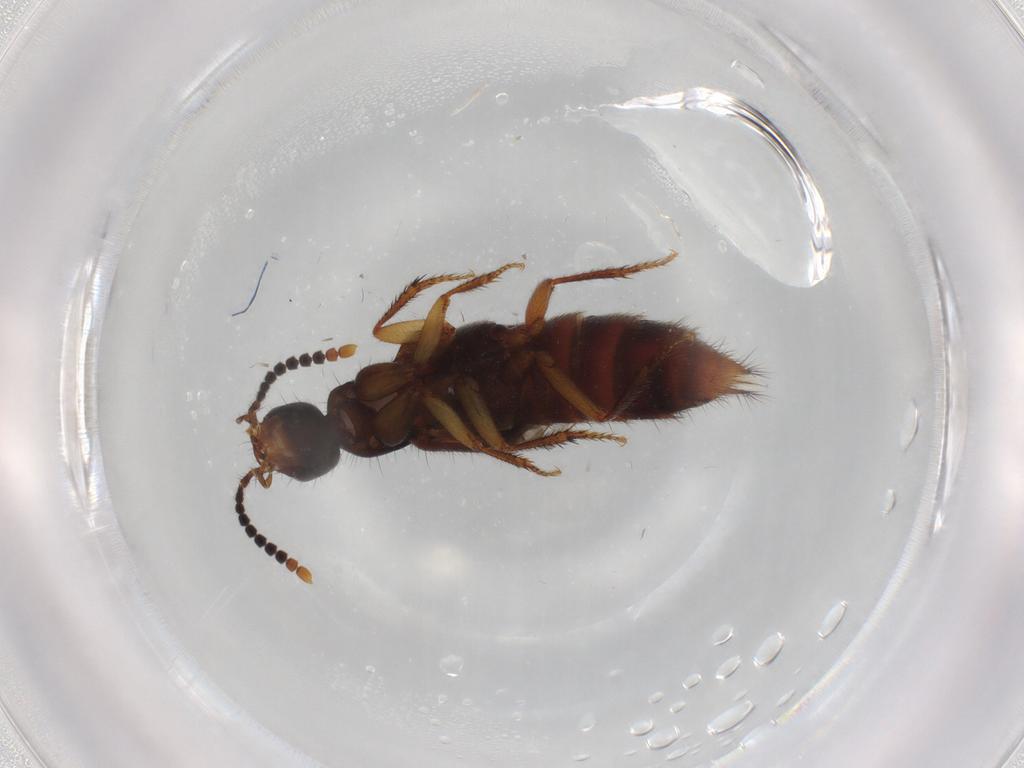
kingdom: Animalia
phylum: Arthropoda
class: Insecta
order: Coleoptera
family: Staphylinidae
